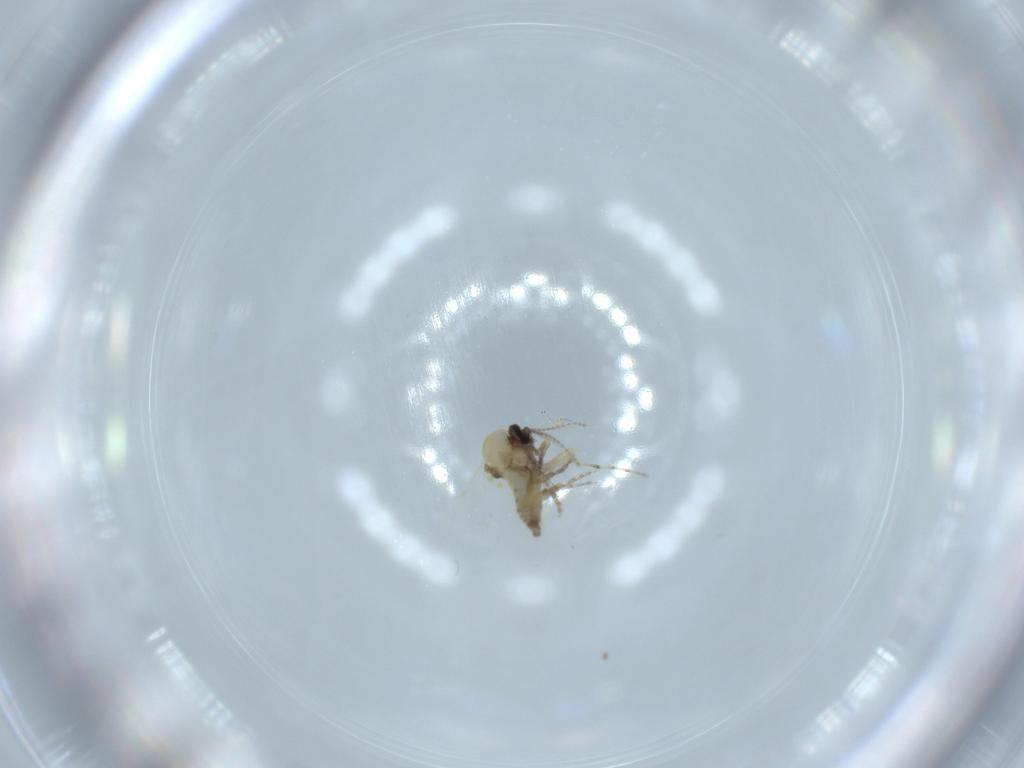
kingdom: Animalia
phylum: Arthropoda
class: Insecta
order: Diptera
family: Ceratopogonidae
